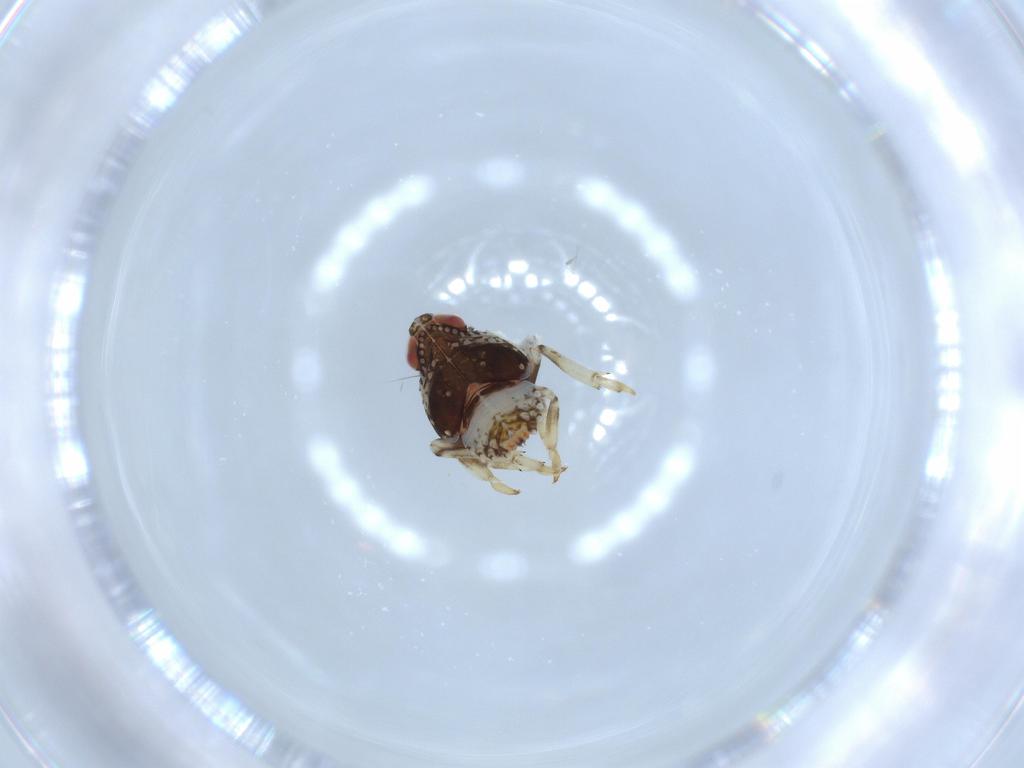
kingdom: Animalia
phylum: Arthropoda
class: Insecta
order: Hemiptera
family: Issidae
